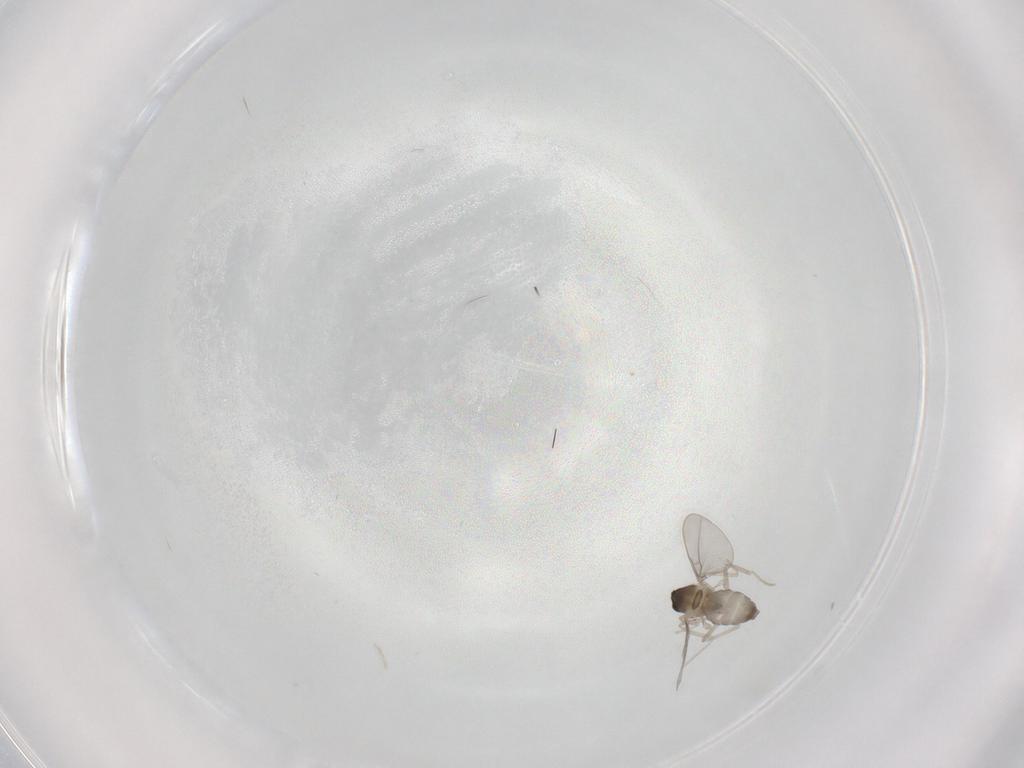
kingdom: Animalia
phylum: Arthropoda
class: Insecta
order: Diptera
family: Cecidomyiidae
